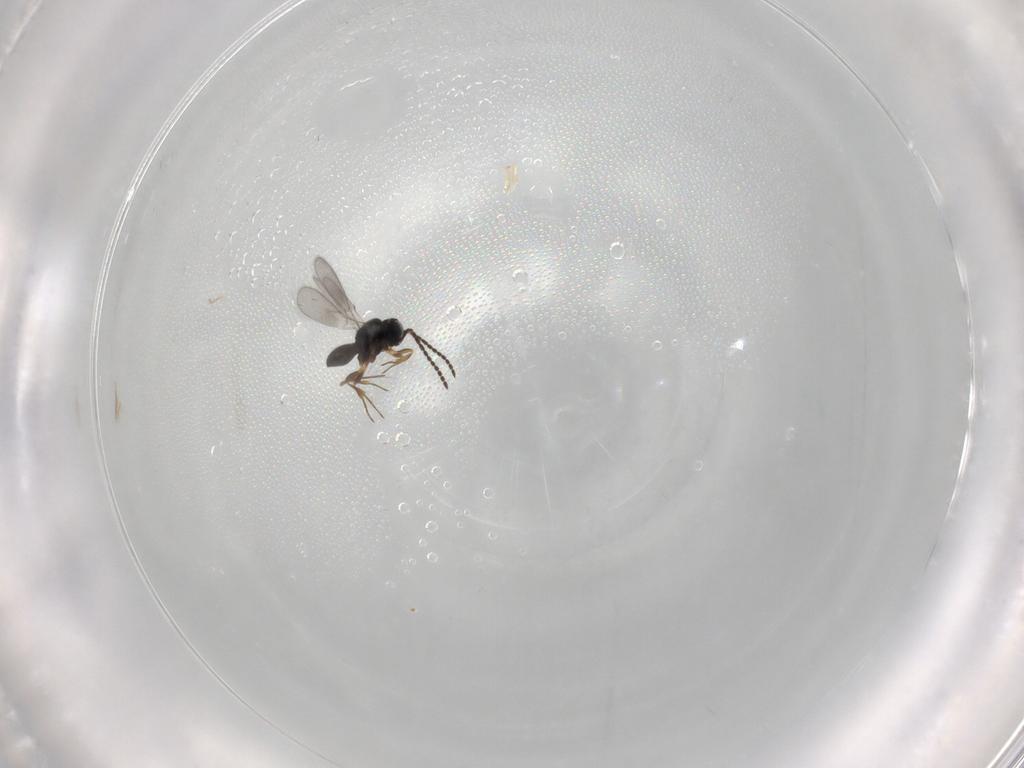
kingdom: Animalia
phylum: Arthropoda
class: Insecta
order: Hymenoptera
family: Scelionidae
